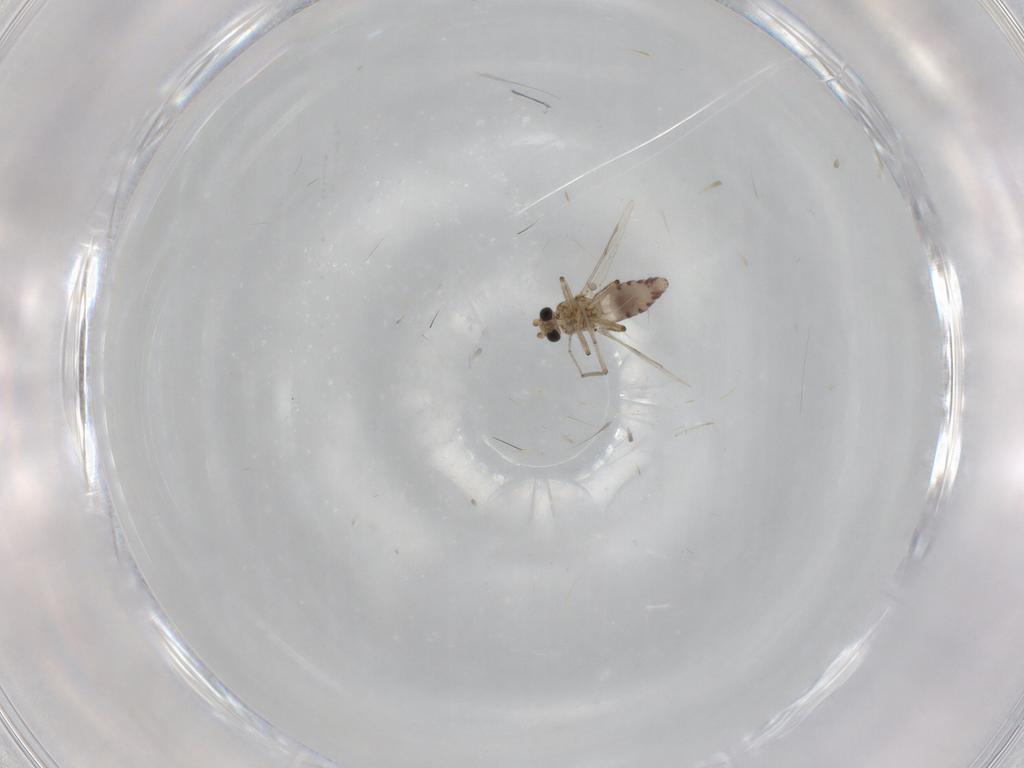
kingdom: Animalia
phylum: Arthropoda
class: Insecta
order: Diptera
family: Cecidomyiidae
